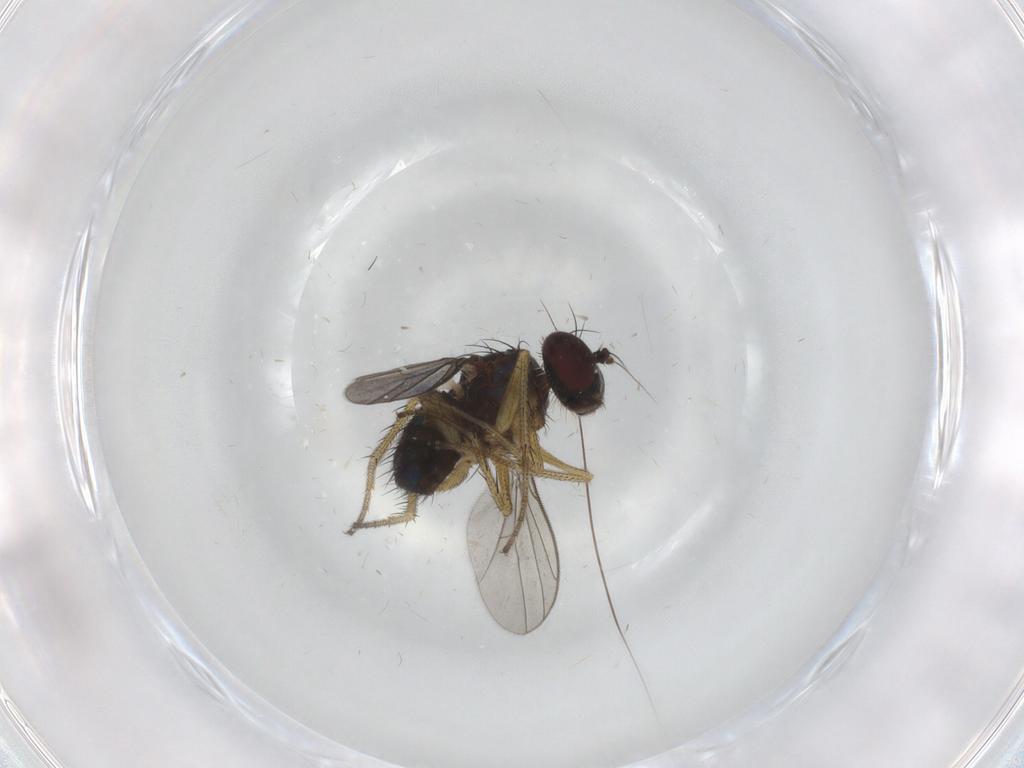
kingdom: Animalia
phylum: Arthropoda
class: Insecta
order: Diptera
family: Dolichopodidae
